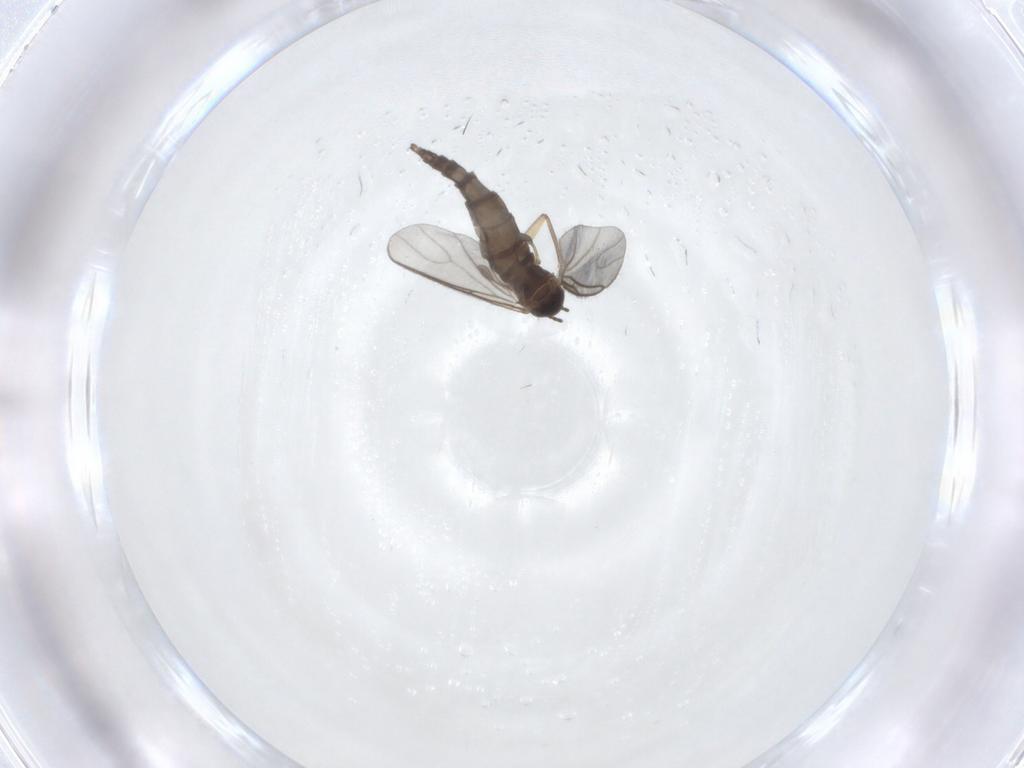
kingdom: Animalia
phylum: Arthropoda
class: Insecta
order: Diptera
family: Sciaridae
